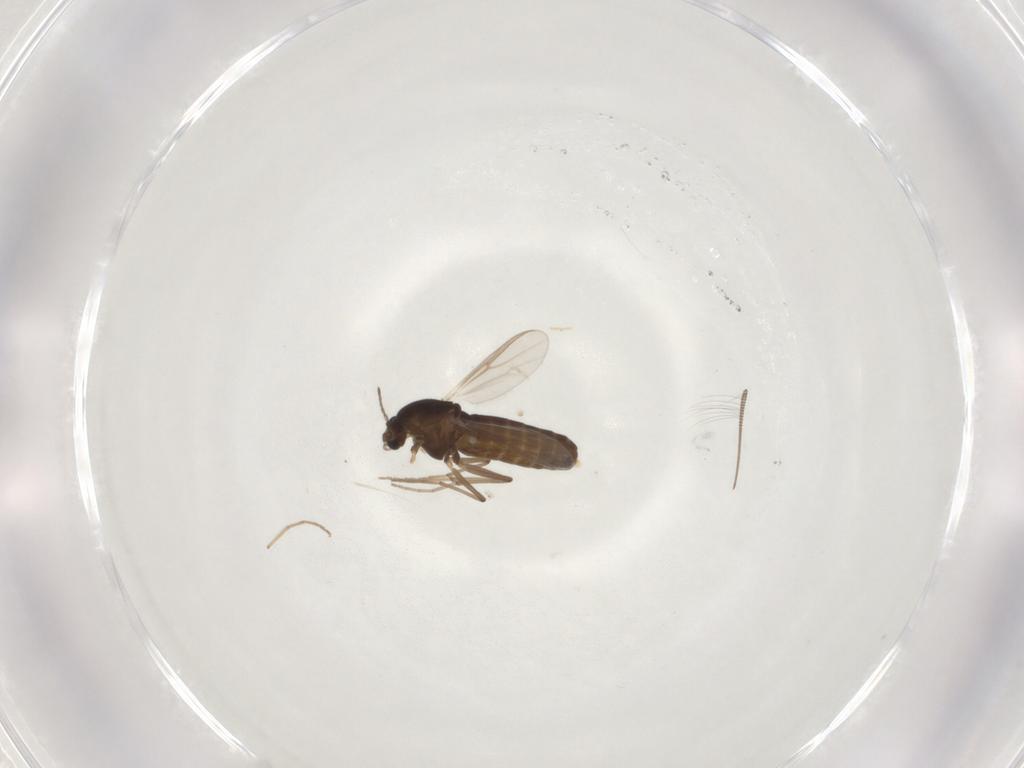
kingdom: Animalia
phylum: Arthropoda
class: Insecta
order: Diptera
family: Chironomidae
